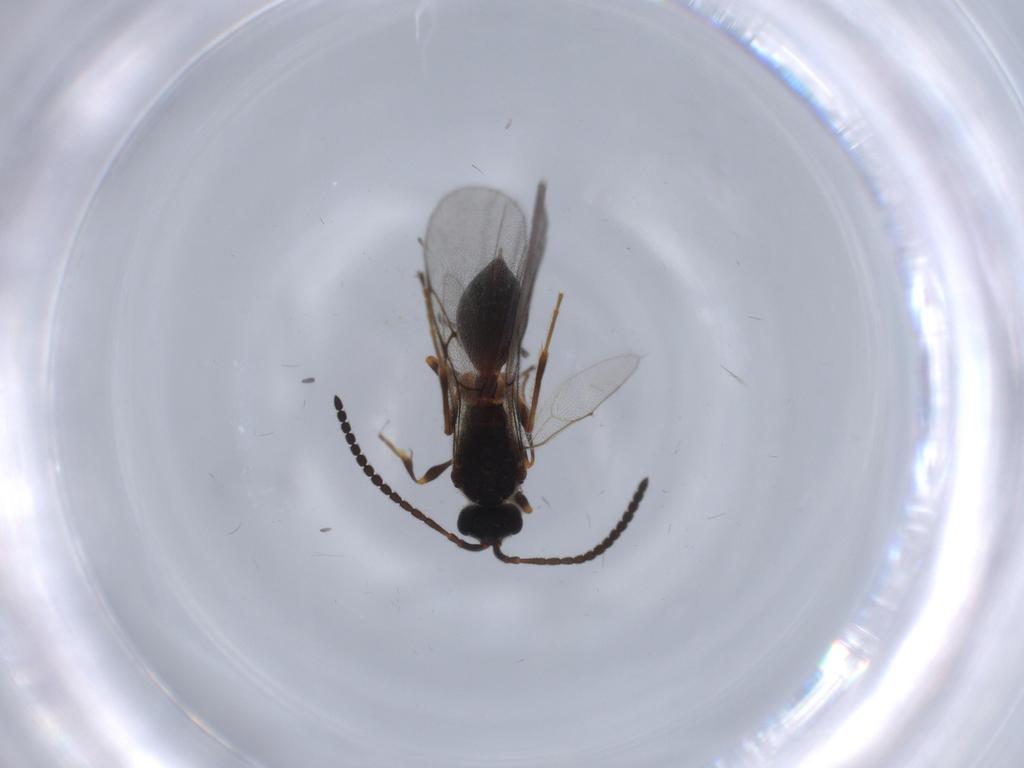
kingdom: Animalia
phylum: Arthropoda
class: Insecta
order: Hymenoptera
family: Diapriidae
